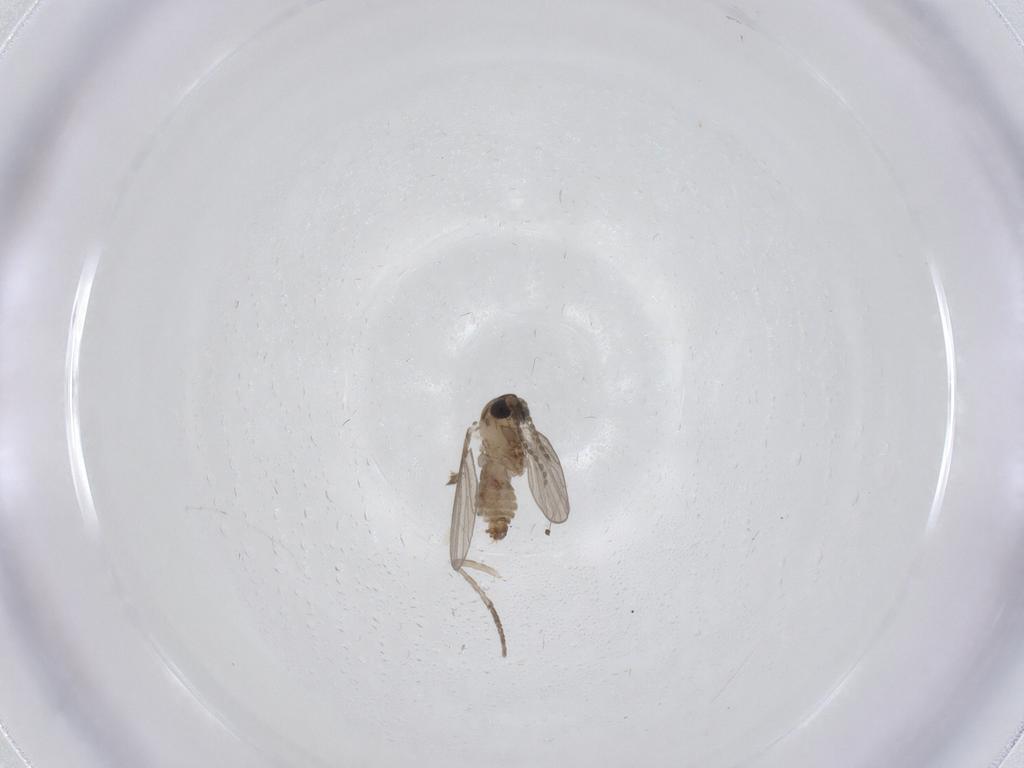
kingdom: Animalia
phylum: Arthropoda
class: Insecta
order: Diptera
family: Psychodidae
